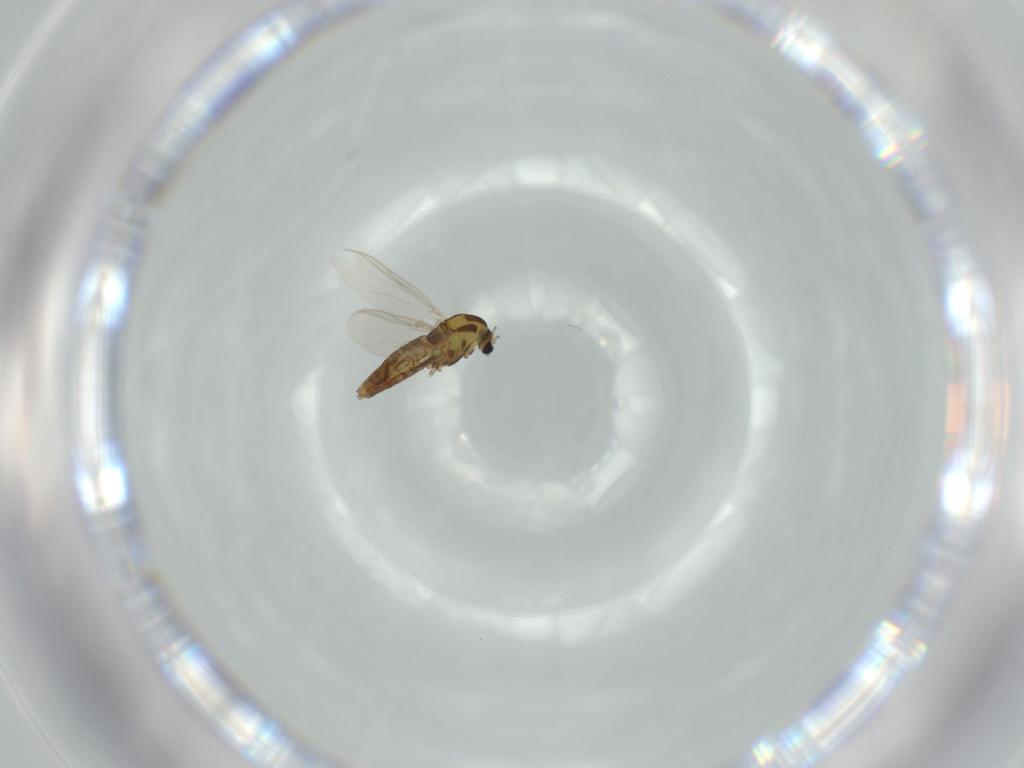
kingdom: Animalia
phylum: Arthropoda
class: Insecta
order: Diptera
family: Chironomidae
